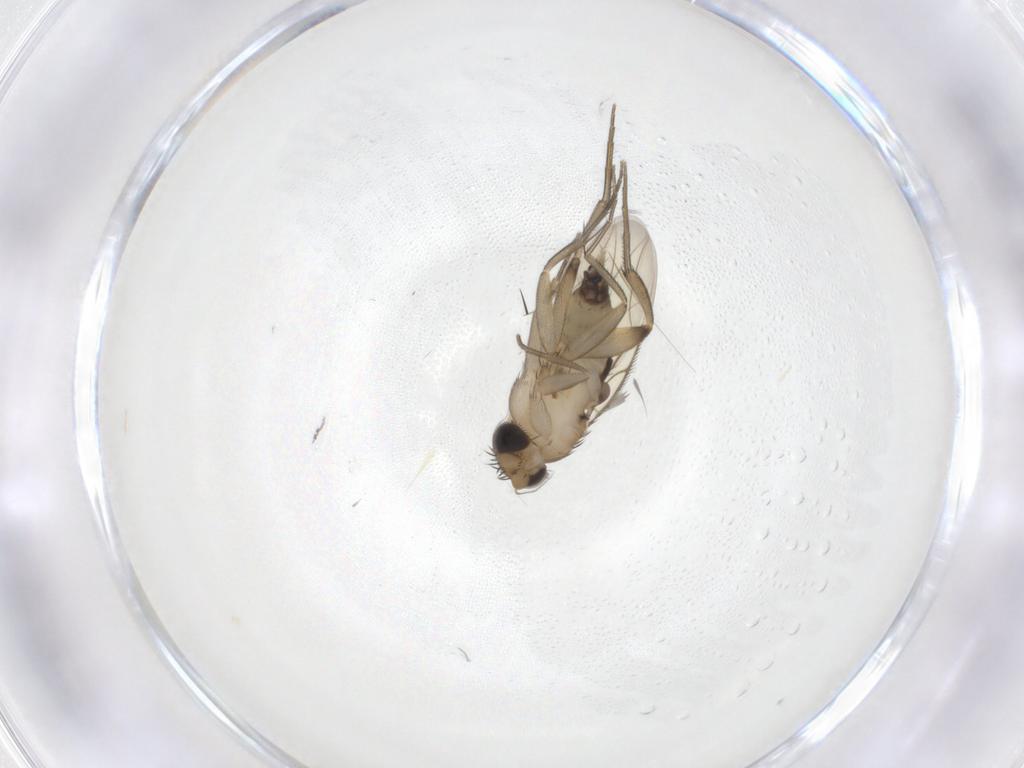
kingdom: Animalia
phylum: Arthropoda
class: Insecta
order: Diptera
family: Phoridae
